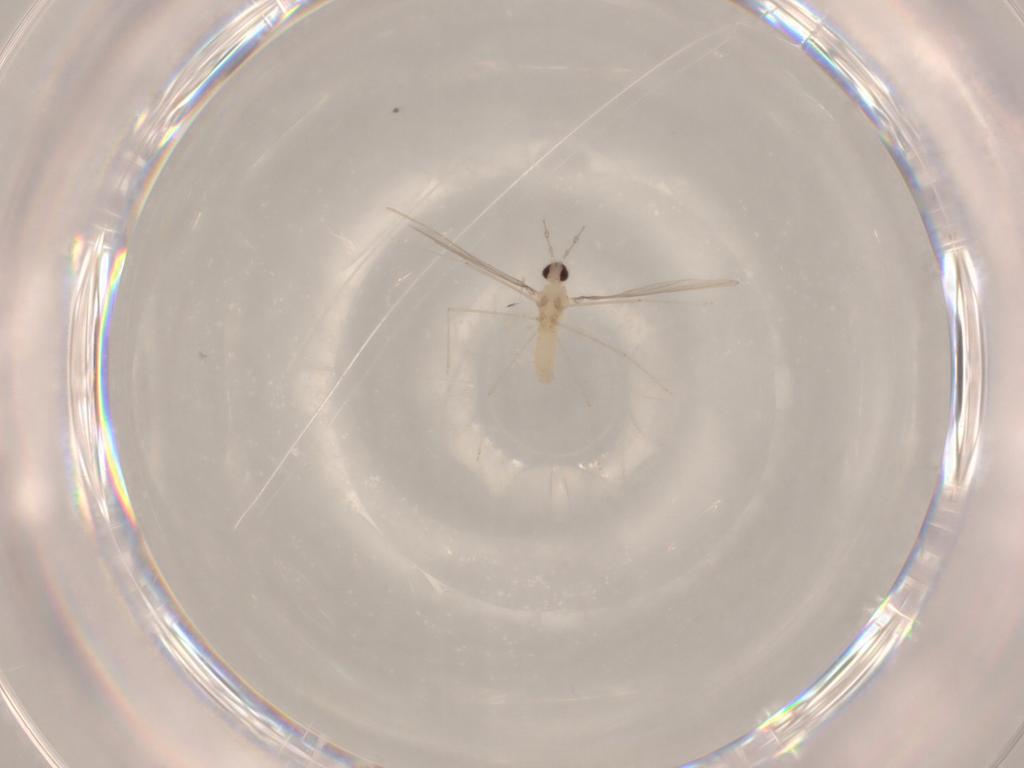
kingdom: Animalia
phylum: Arthropoda
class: Insecta
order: Diptera
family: Cecidomyiidae
